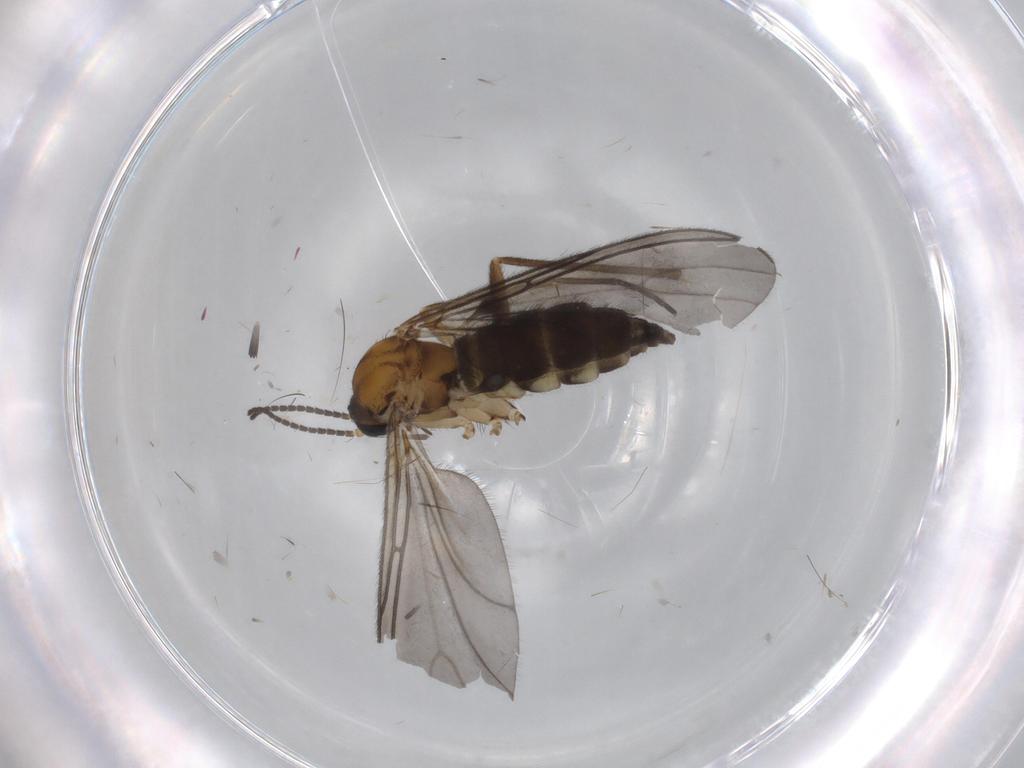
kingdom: Animalia
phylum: Arthropoda
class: Insecta
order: Diptera
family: Sciaridae
